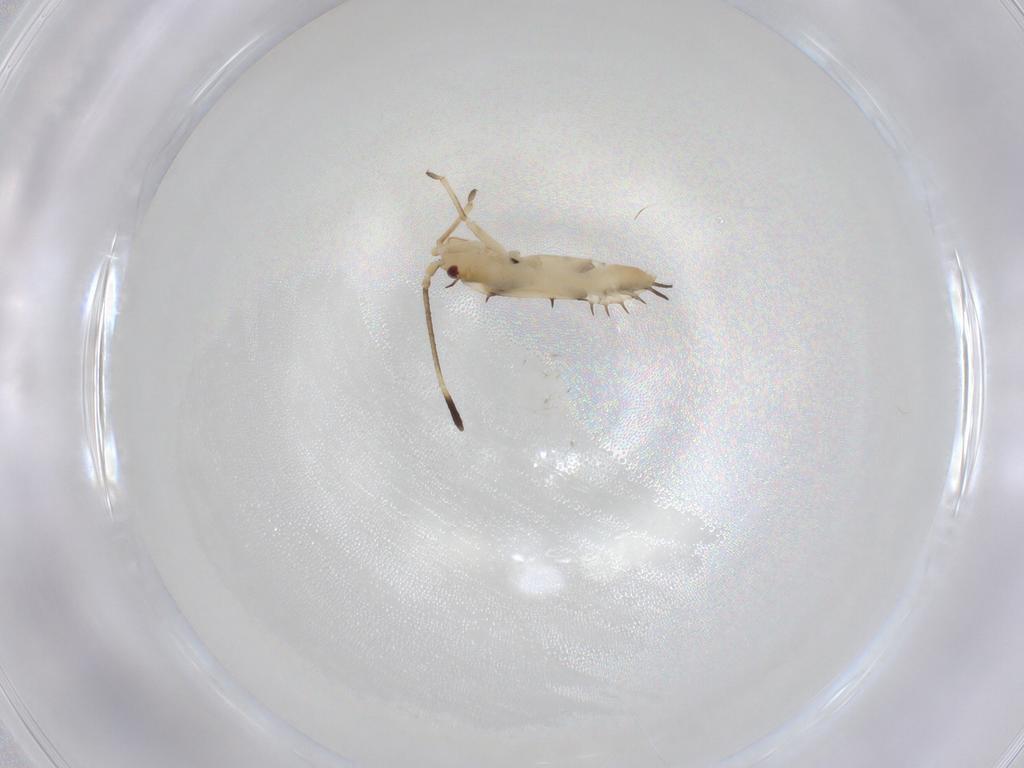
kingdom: Animalia
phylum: Arthropoda
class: Insecta
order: Hemiptera
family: Tingidae
